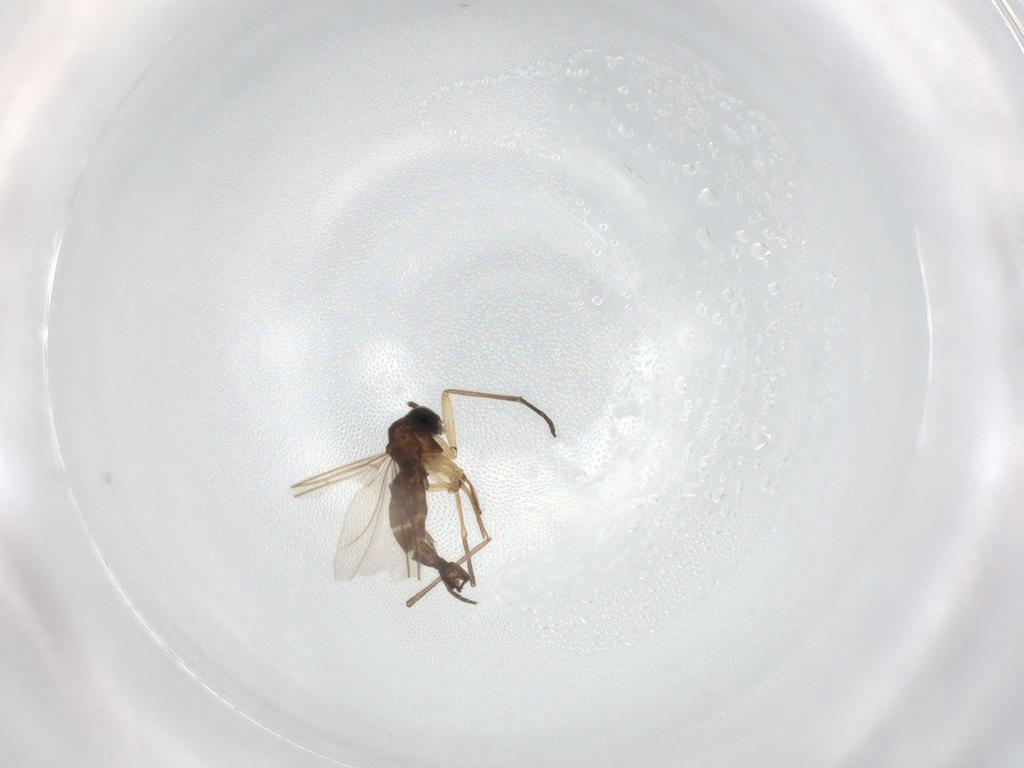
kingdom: Animalia
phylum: Arthropoda
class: Insecta
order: Diptera
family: Sciaridae
